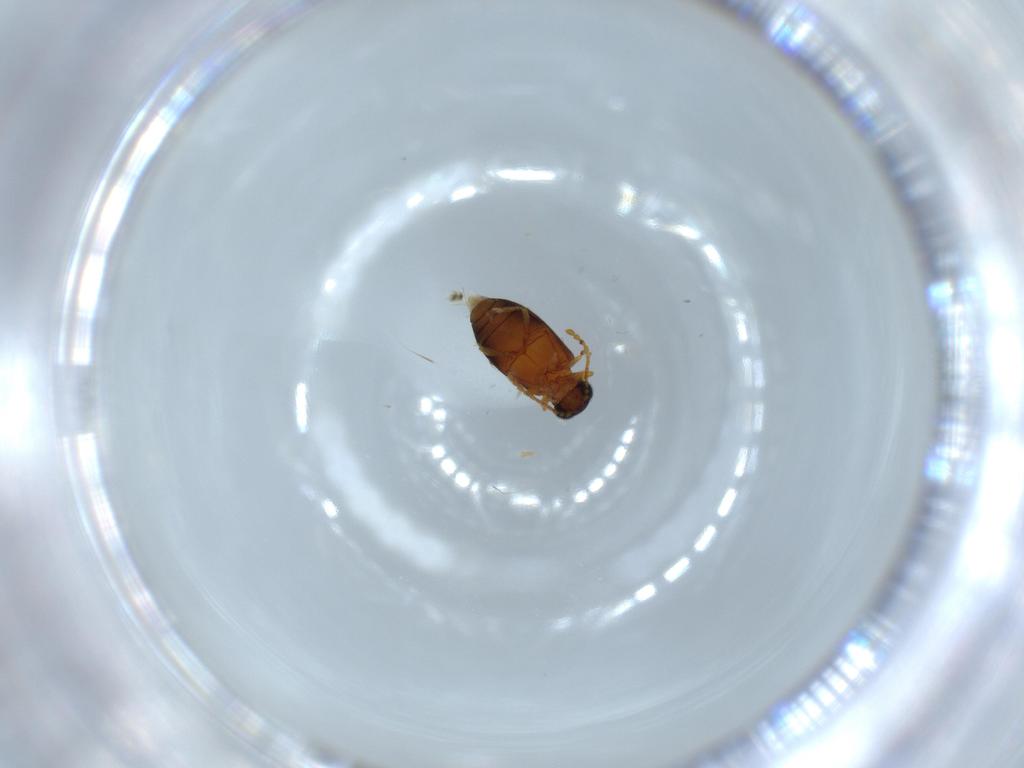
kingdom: Animalia
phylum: Arthropoda
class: Insecta
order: Coleoptera
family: Aderidae
